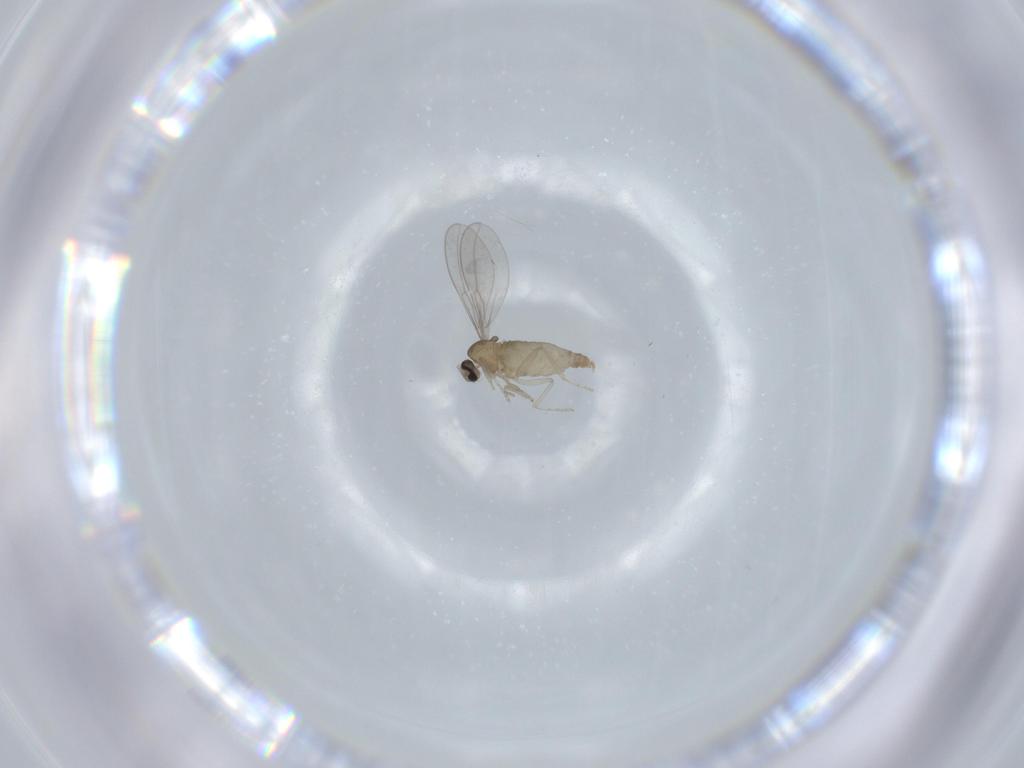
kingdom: Animalia
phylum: Arthropoda
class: Insecta
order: Diptera
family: Cecidomyiidae
